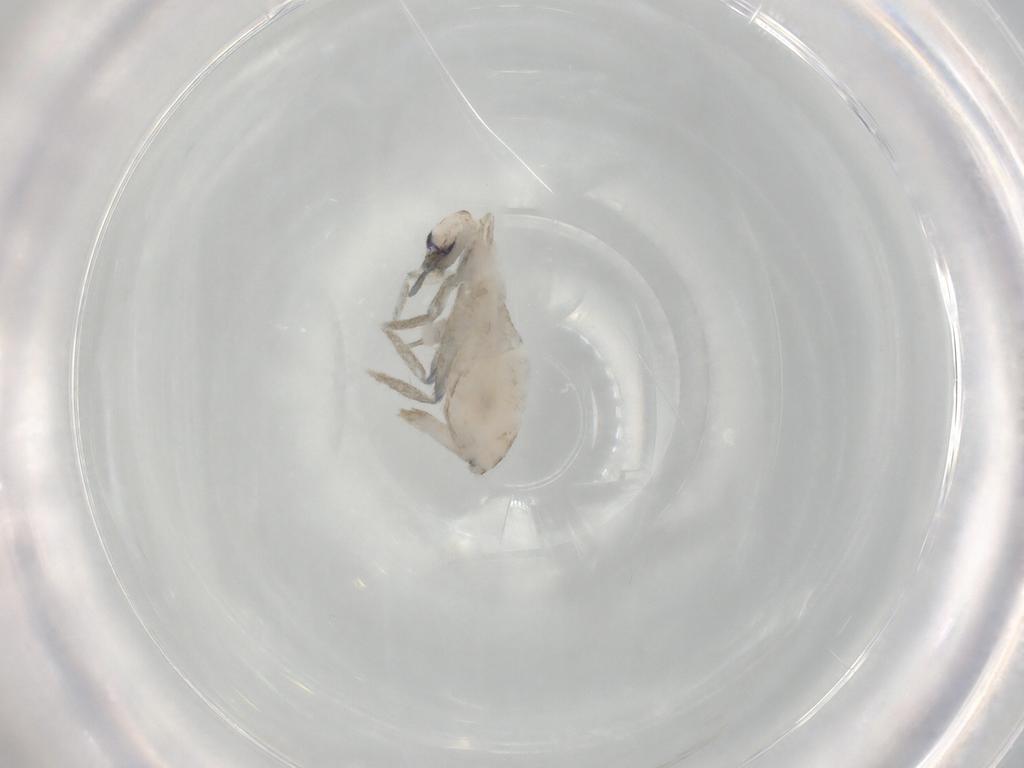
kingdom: Animalia
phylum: Arthropoda
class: Collembola
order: Entomobryomorpha
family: Tomoceridae
